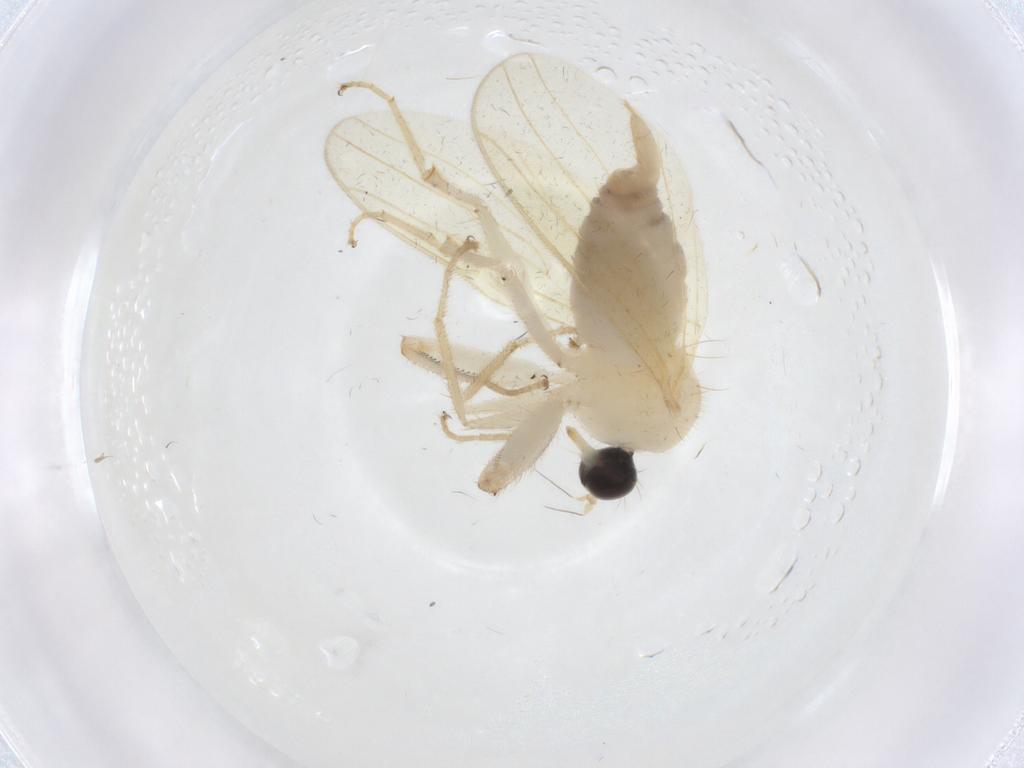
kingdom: Animalia
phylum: Arthropoda
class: Insecta
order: Diptera
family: Hybotidae
